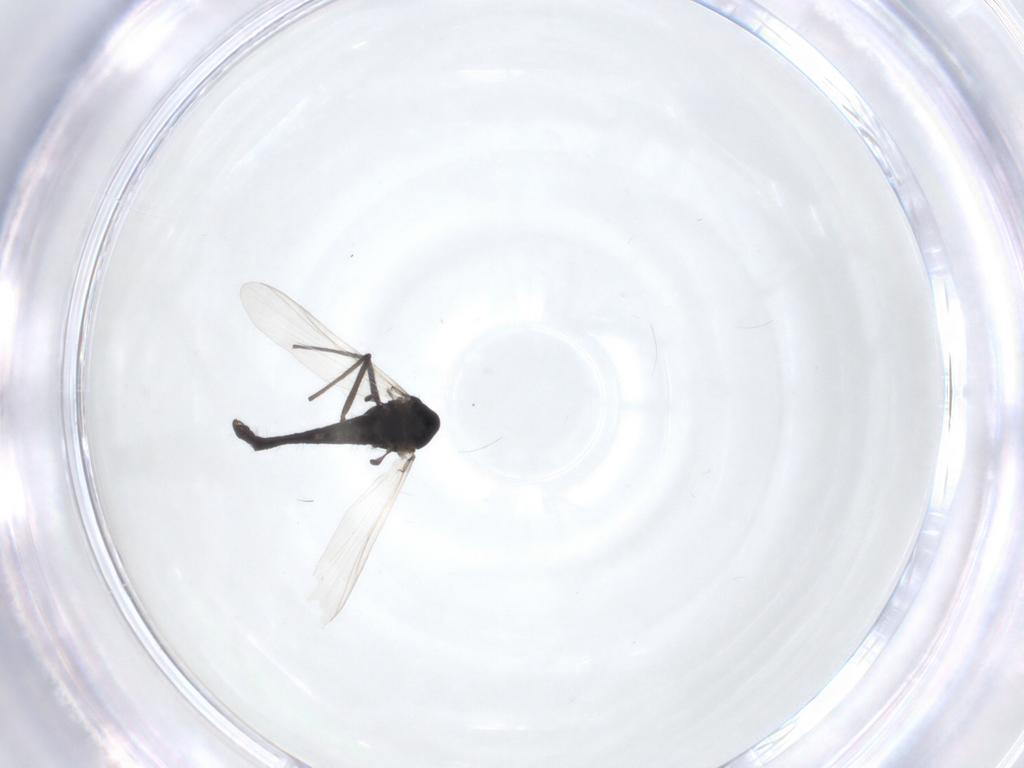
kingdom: Animalia
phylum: Arthropoda
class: Insecta
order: Diptera
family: Chironomidae
